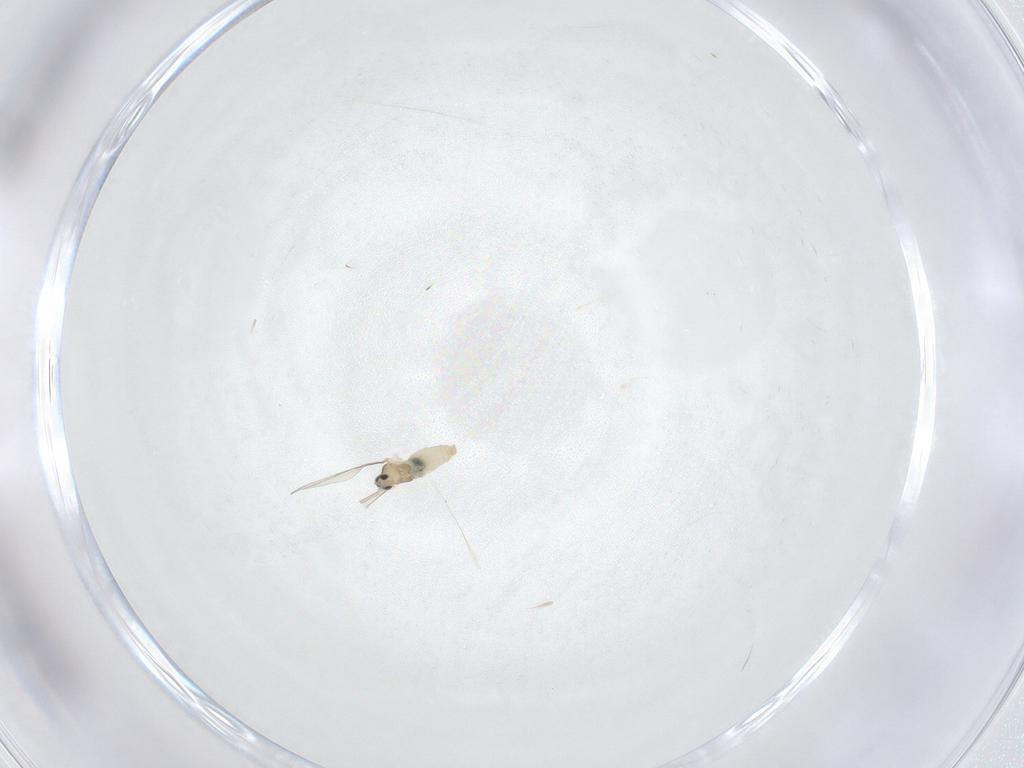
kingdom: Animalia
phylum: Arthropoda
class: Insecta
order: Diptera
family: Cecidomyiidae
